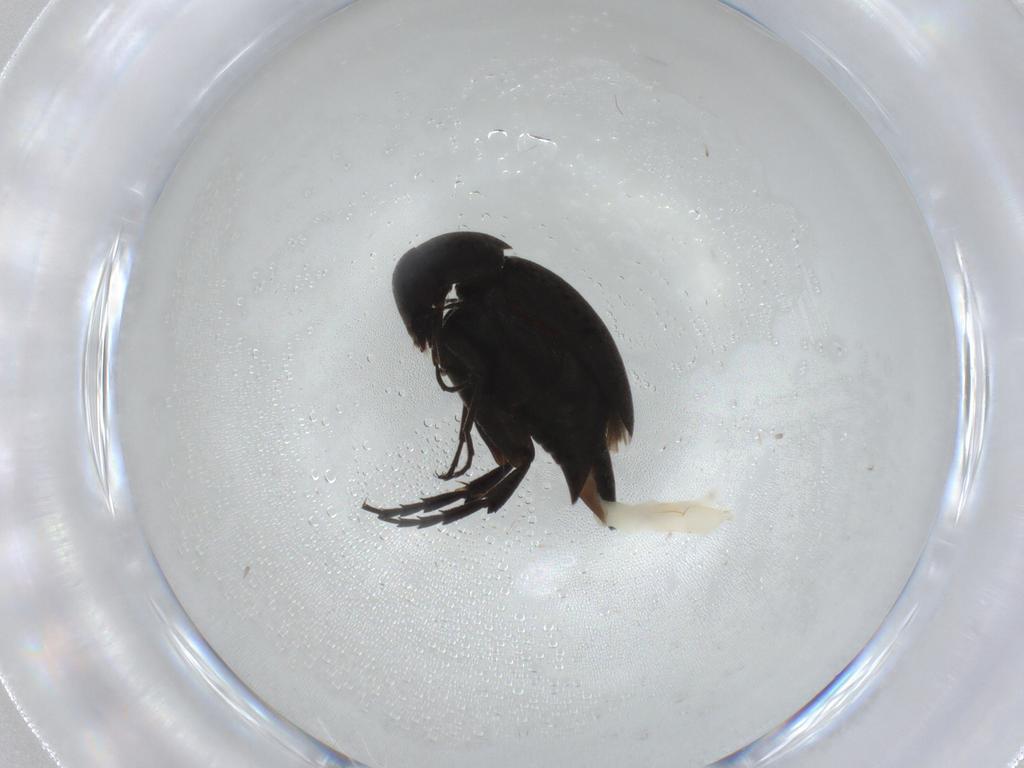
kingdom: Animalia
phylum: Arthropoda
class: Insecta
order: Coleoptera
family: Mordellidae
